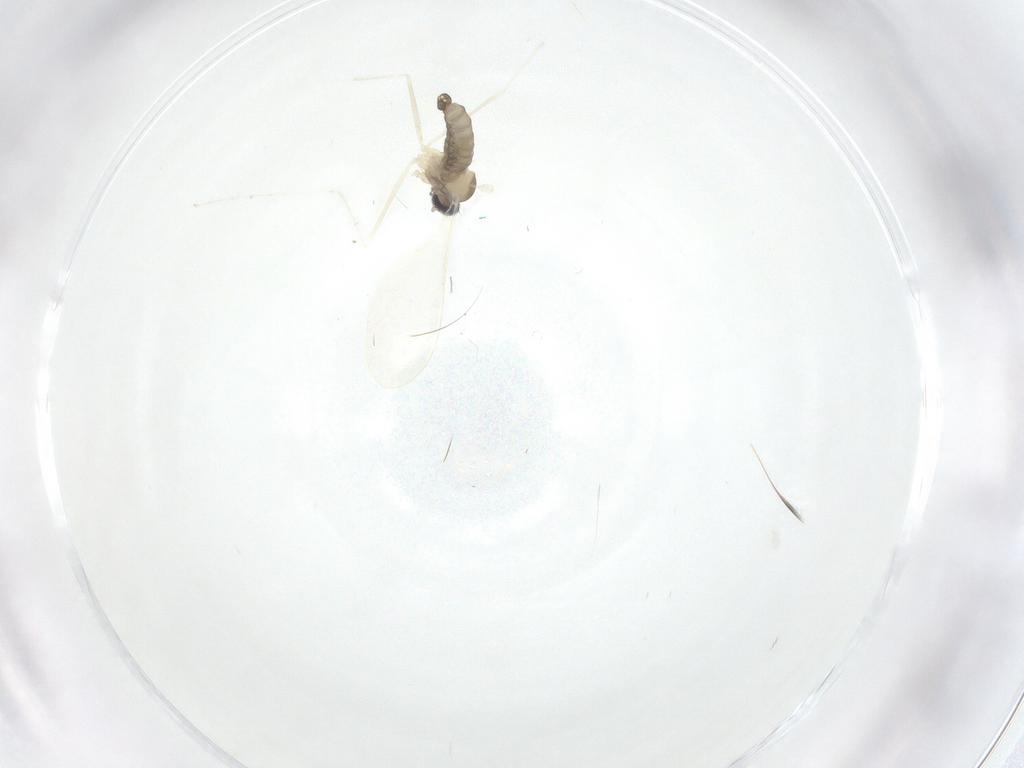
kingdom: Animalia
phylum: Arthropoda
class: Insecta
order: Diptera
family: Cecidomyiidae
